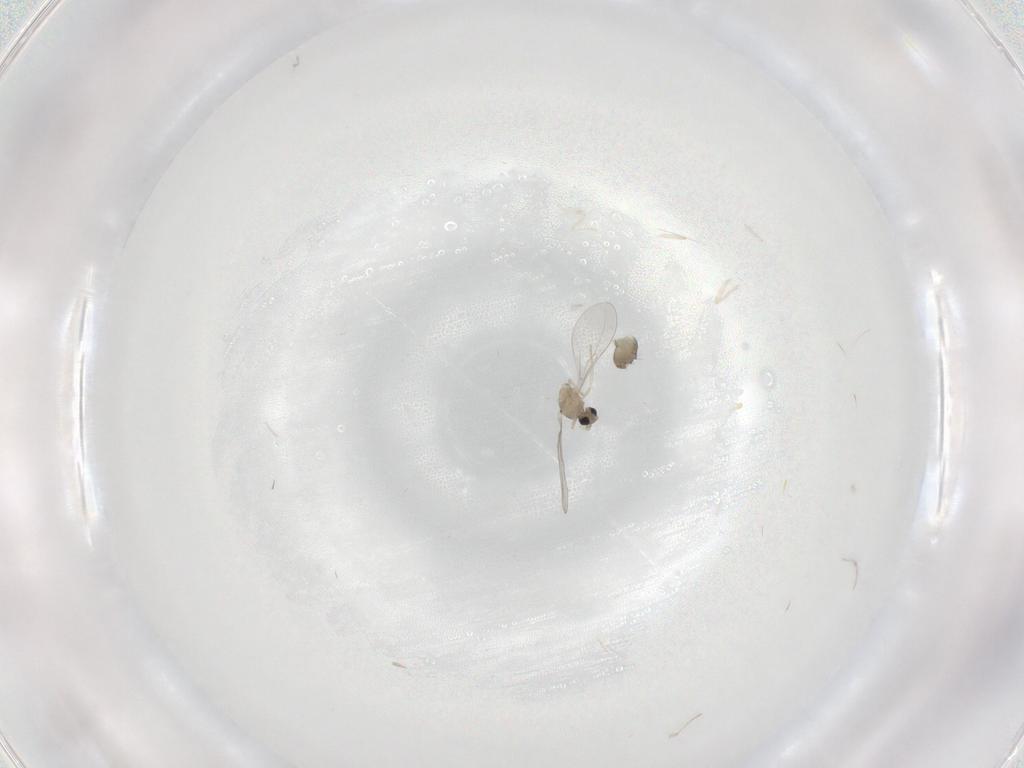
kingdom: Animalia
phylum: Arthropoda
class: Insecta
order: Diptera
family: Cecidomyiidae
